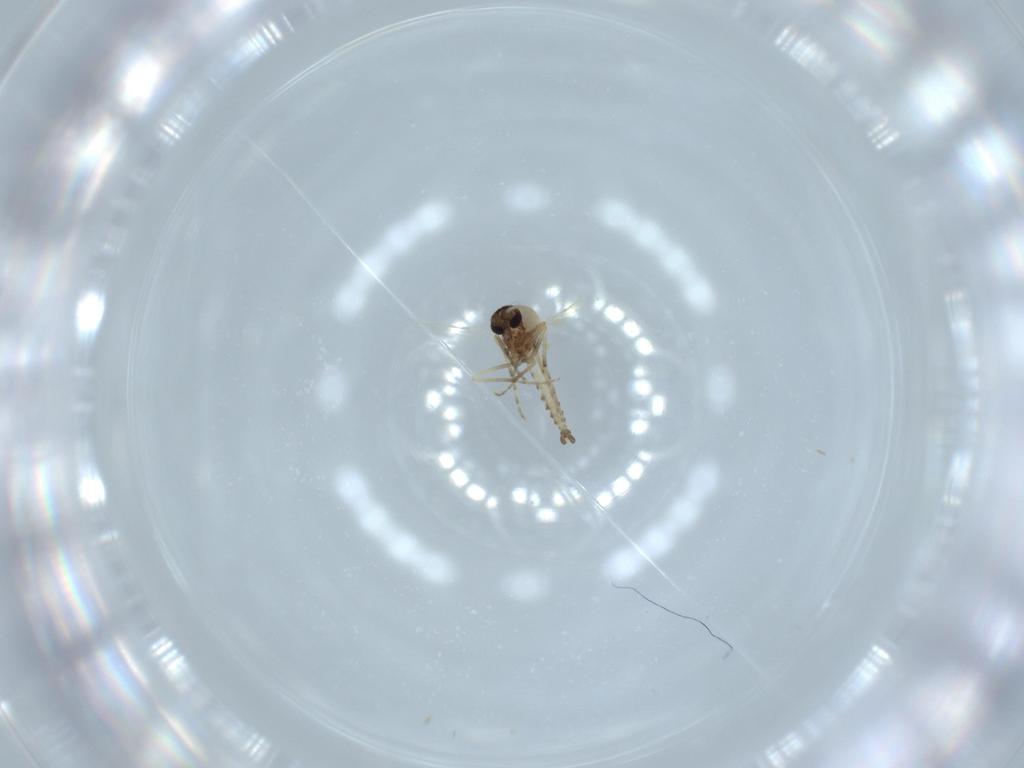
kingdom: Animalia
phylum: Arthropoda
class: Insecta
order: Diptera
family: Ceratopogonidae
